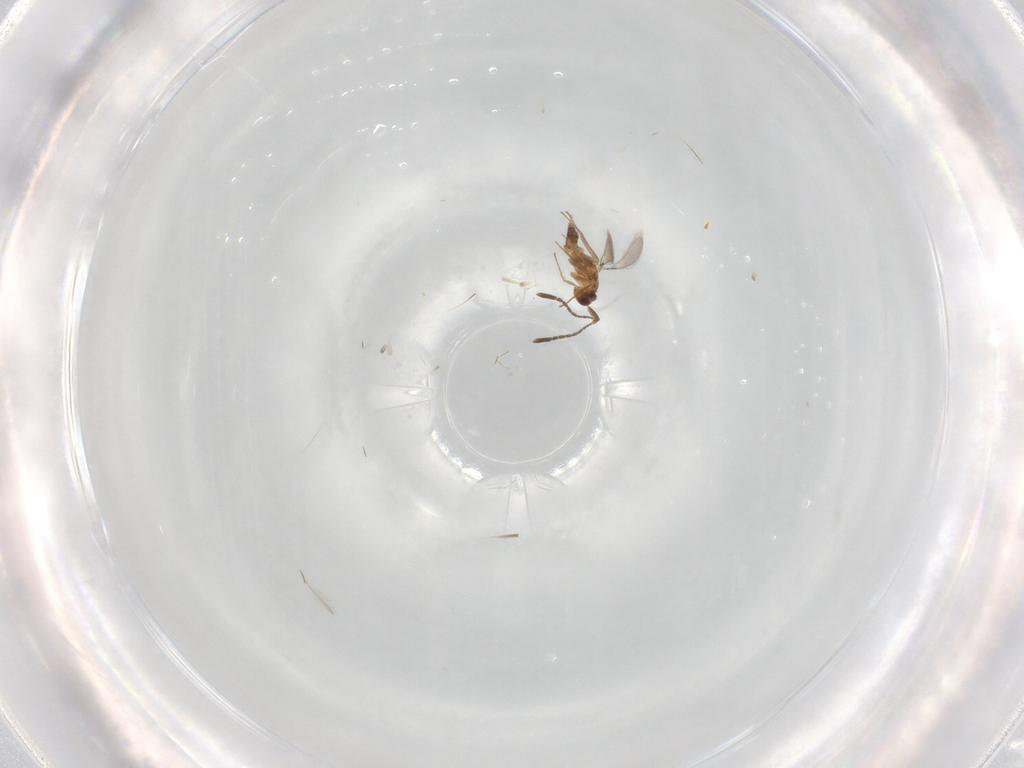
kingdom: Animalia
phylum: Arthropoda
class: Insecta
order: Hymenoptera
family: Mymaridae
